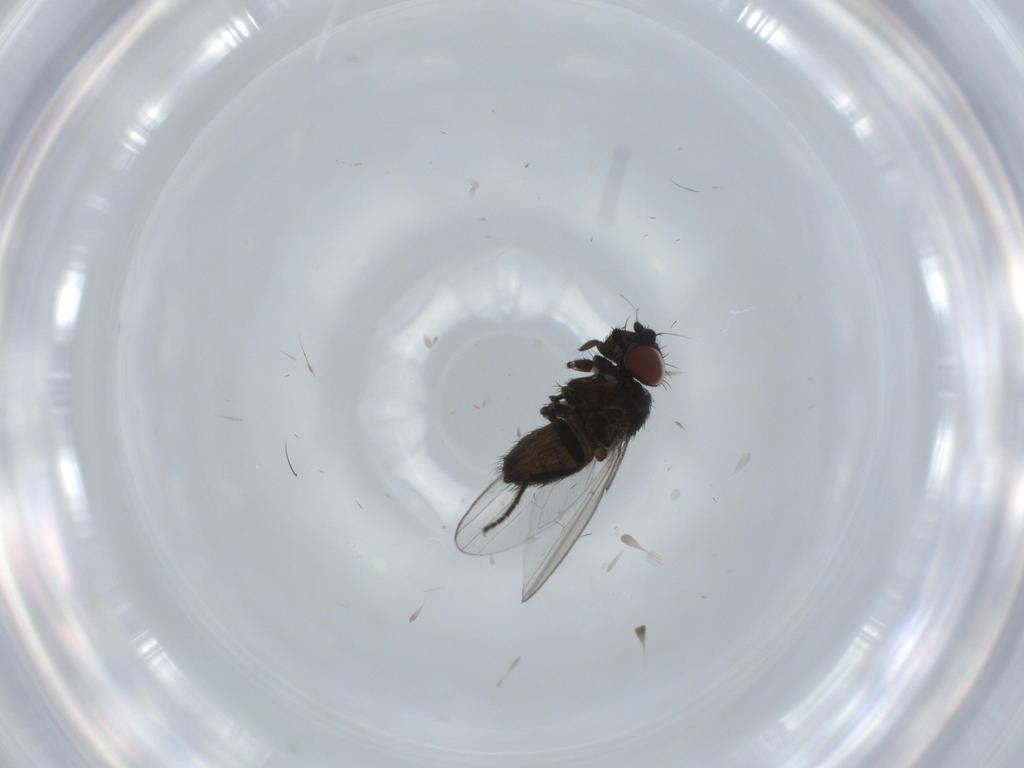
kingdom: Animalia
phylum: Arthropoda
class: Insecta
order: Diptera
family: Milichiidae
